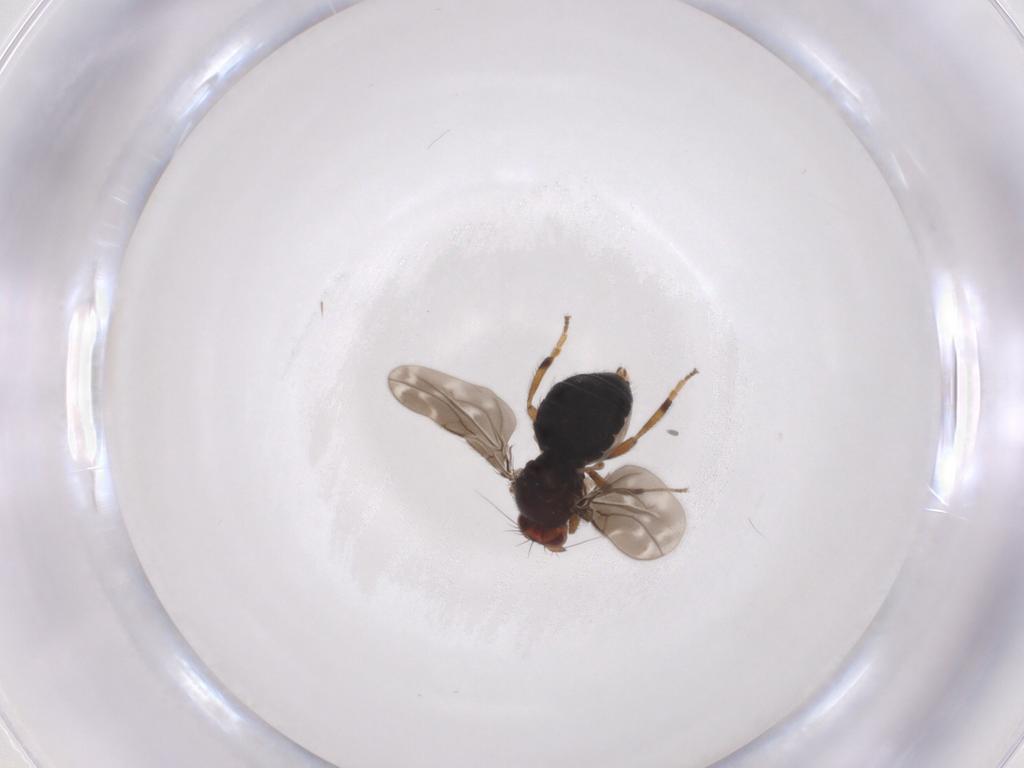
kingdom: Animalia
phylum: Arthropoda
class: Insecta
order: Diptera
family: Sphaeroceridae
